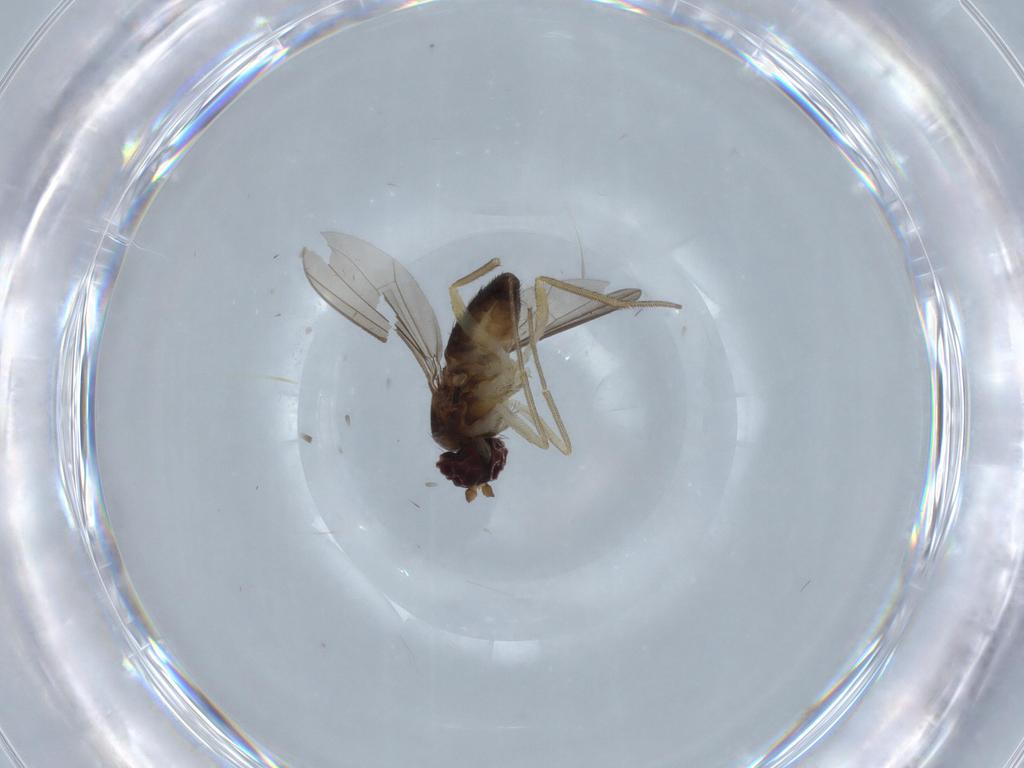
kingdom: Animalia
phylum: Arthropoda
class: Insecta
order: Diptera
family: Dolichopodidae
